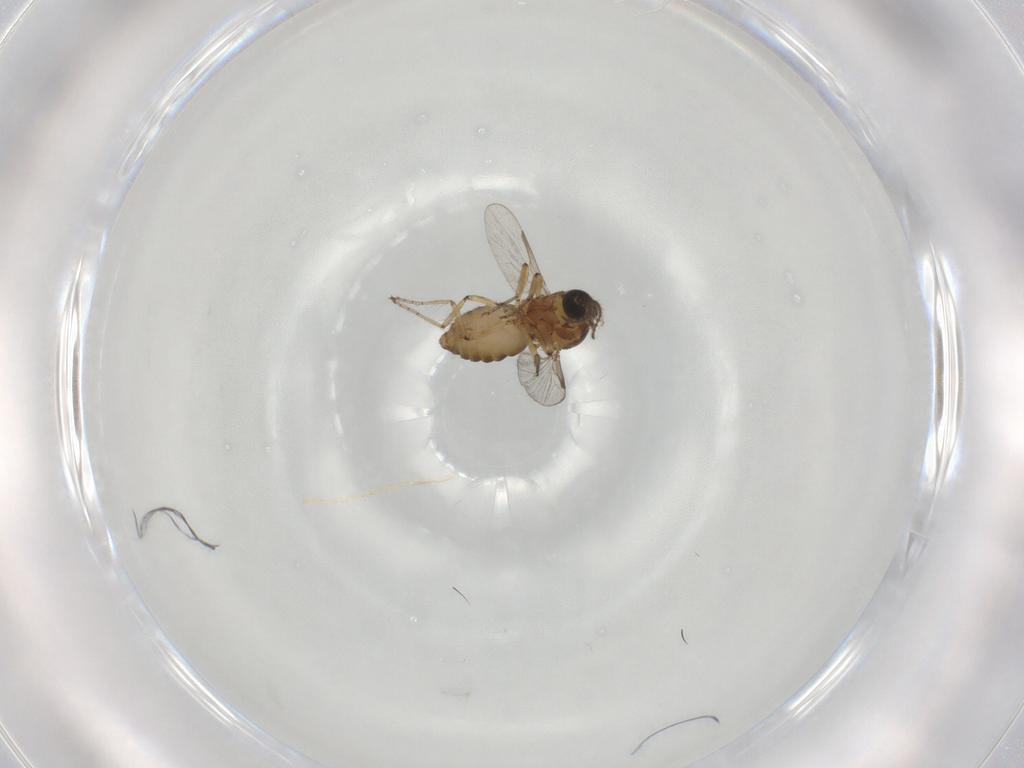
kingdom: Animalia
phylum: Arthropoda
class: Insecta
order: Diptera
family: Ceratopogonidae
